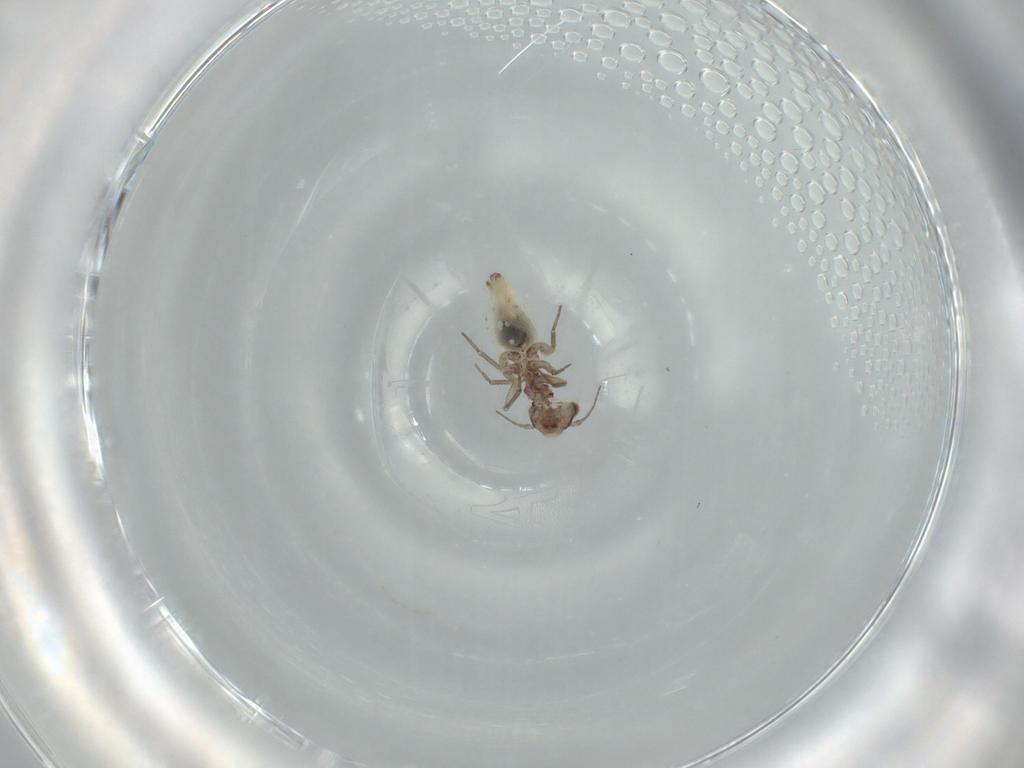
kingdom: Animalia
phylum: Arthropoda
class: Insecta
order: Psocodea
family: Lepidopsocidae
